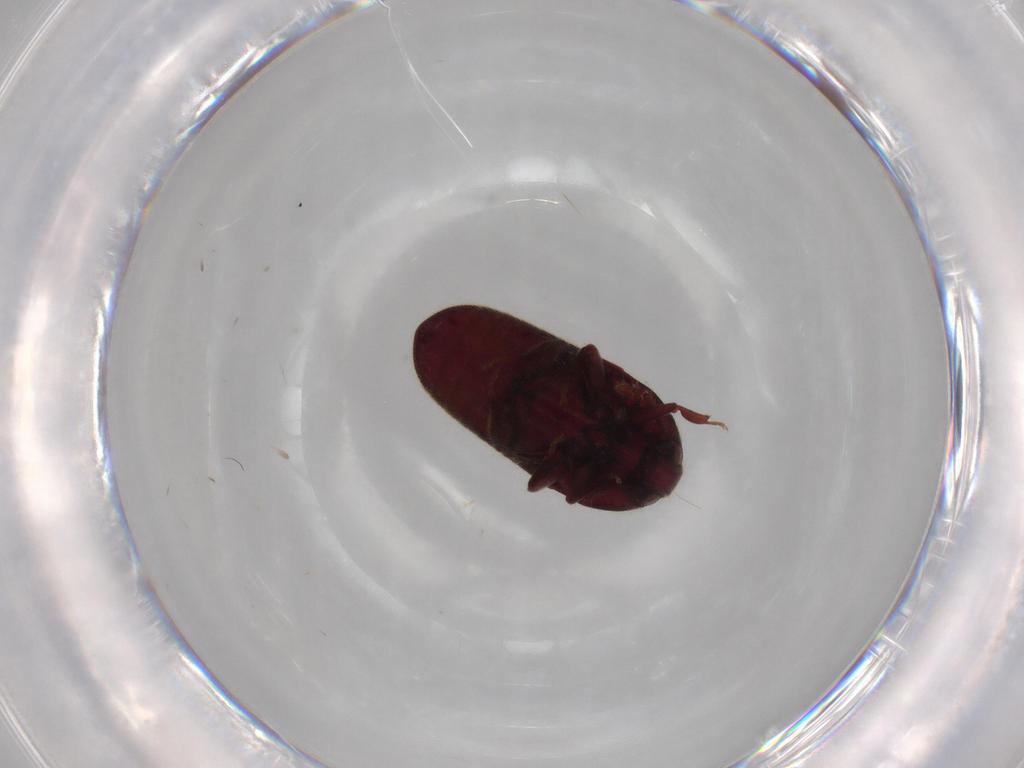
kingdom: Animalia
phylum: Arthropoda
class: Insecta
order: Coleoptera
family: Throscidae
